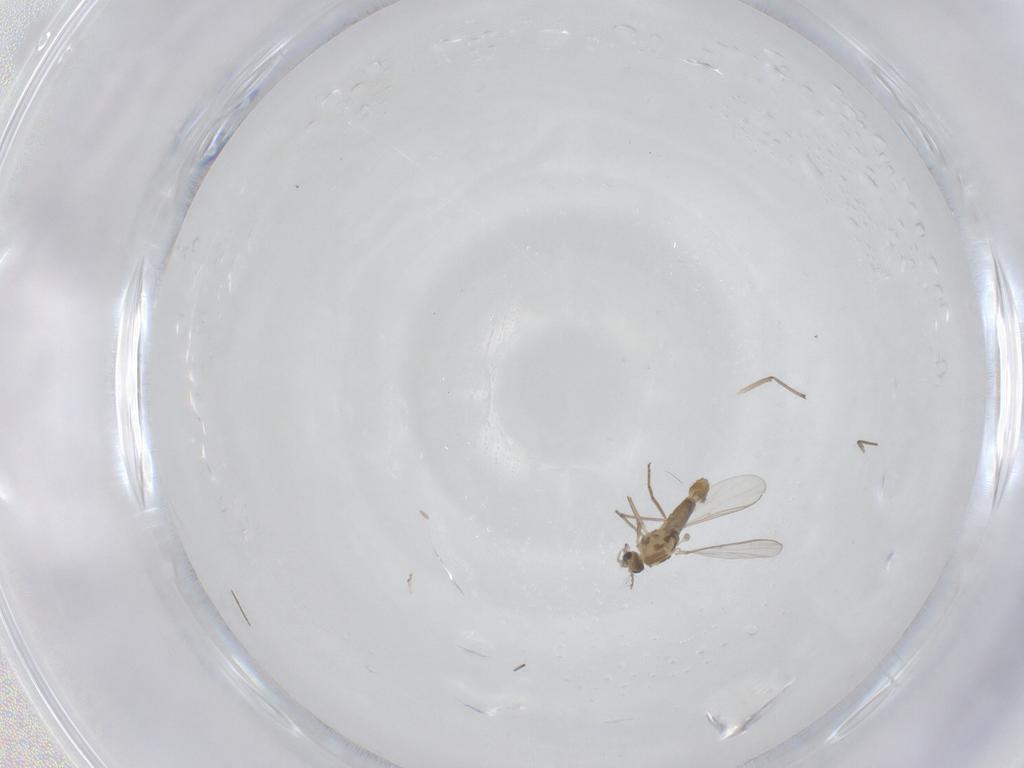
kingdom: Animalia
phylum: Arthropoda
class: Insecta
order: Diptera
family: Chironomidae
